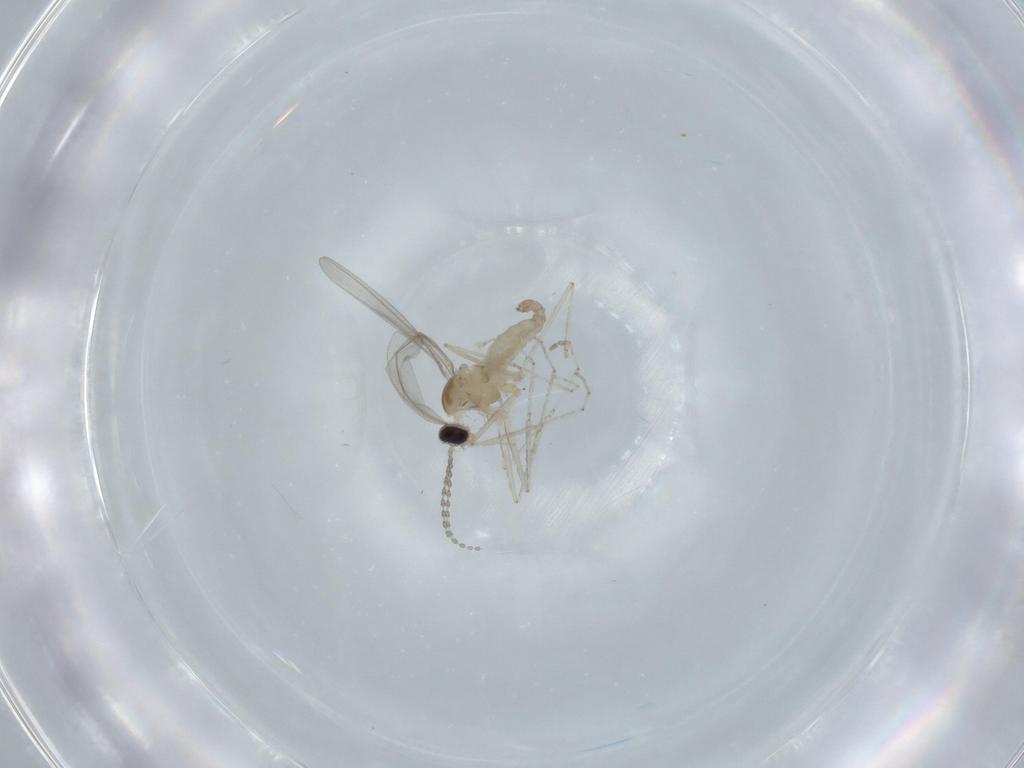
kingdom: Animalia
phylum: Arthropoda
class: Insecta
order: Diptera
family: Cecidomyiidae
